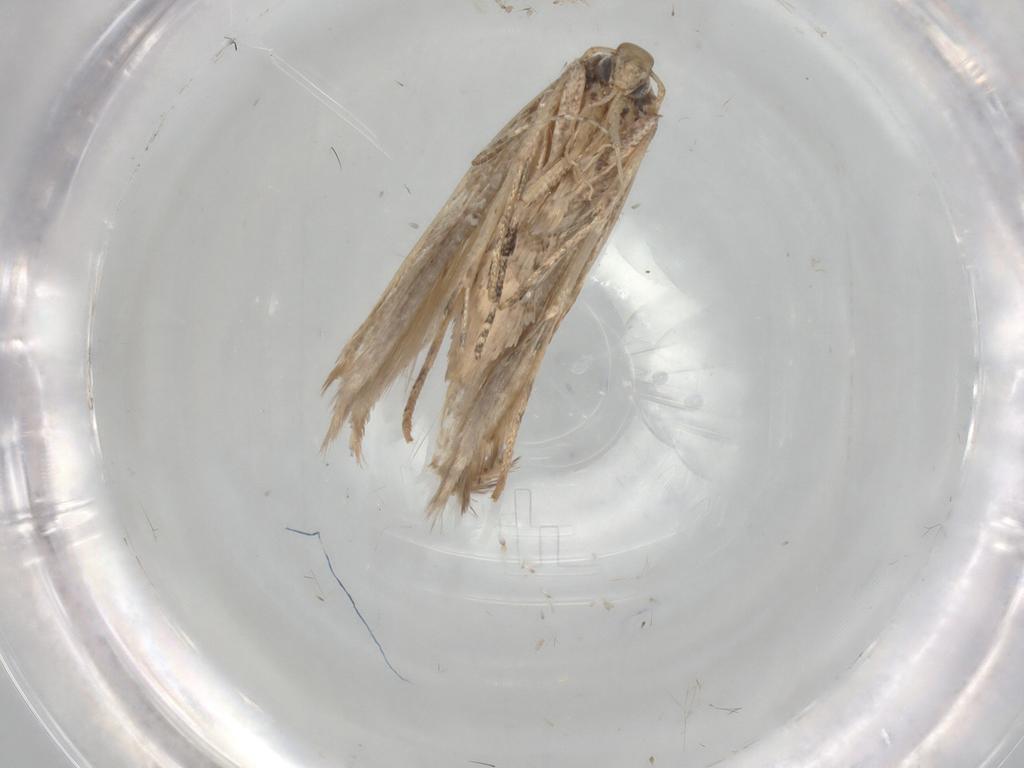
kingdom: Animalia
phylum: Arthropoda
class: Insecta
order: Lepidoptera
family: Gelechiidae
